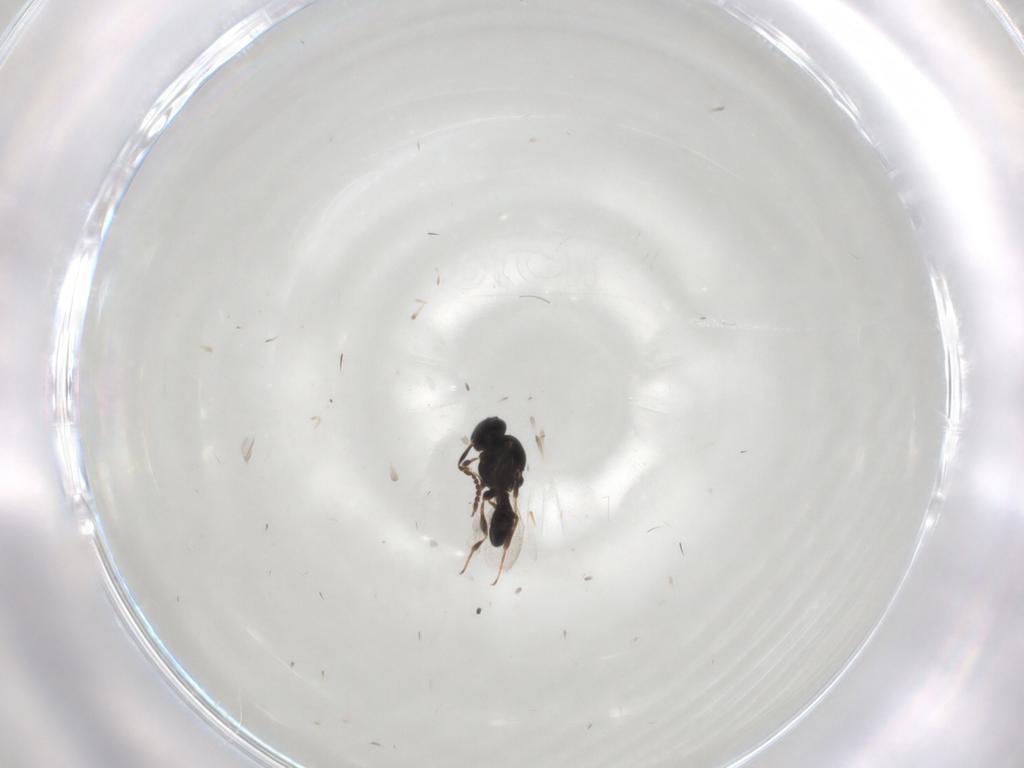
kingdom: Animalia
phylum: Arthropoda
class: Insecta
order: Hymenoptera
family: Platygastridae
